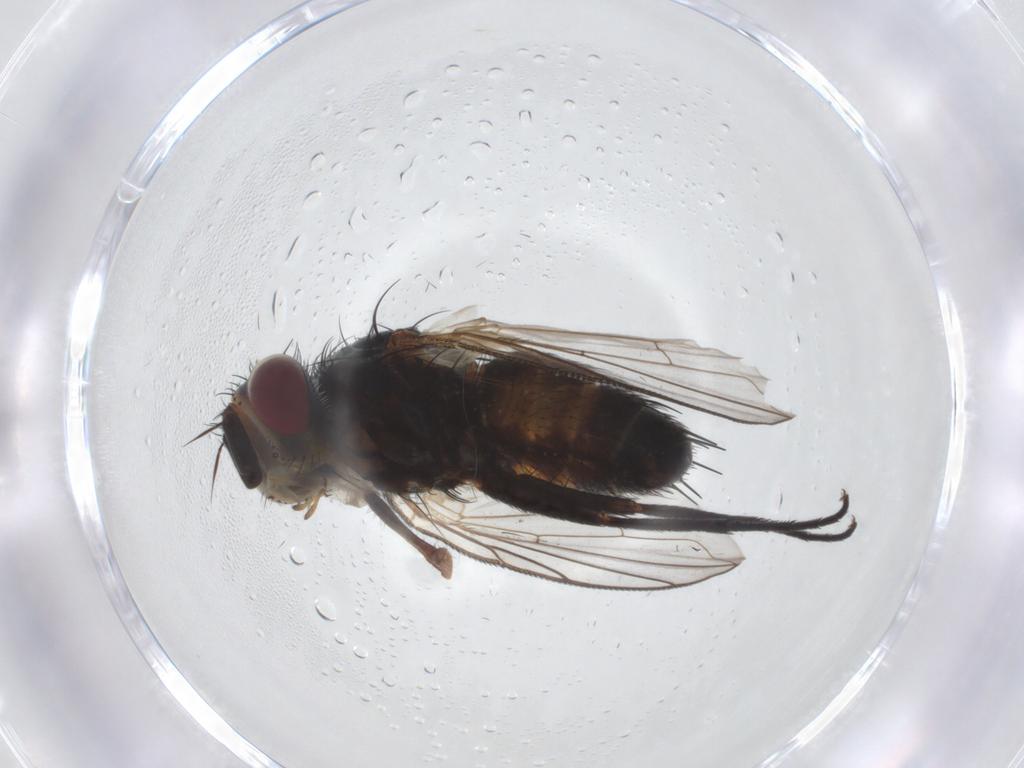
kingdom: Animalia
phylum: Arthropoda
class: Insecta
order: Diptera
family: Tachinidae
